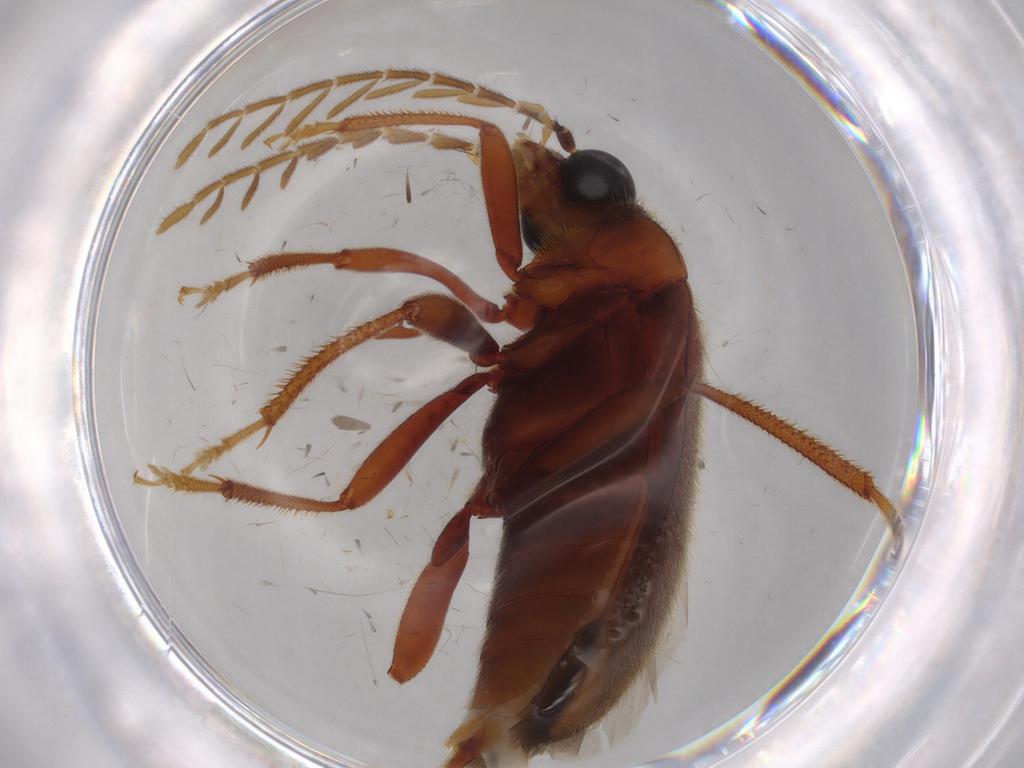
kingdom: Animalia
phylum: Arthropoda
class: Insecta
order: Coleoptera
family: Ptilodactylidae
